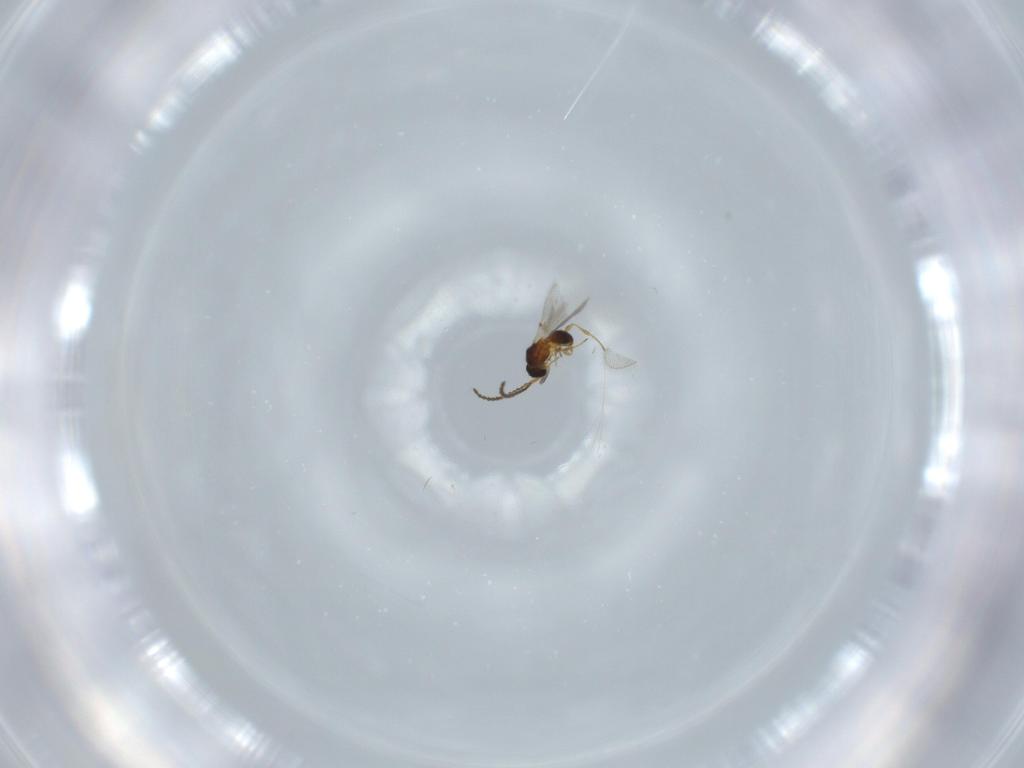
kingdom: Animalia
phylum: Arthropoda
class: Insecta
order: Hymenoptera
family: Diapriidae
